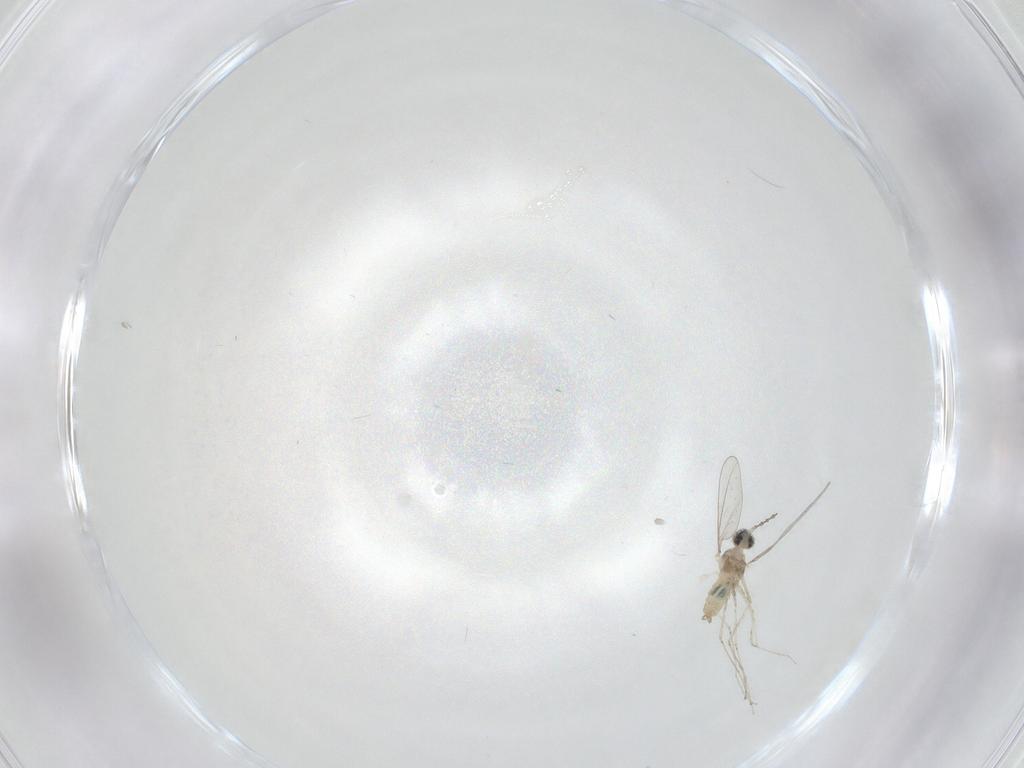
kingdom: Animalia
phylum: Arthropoda
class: Insecta
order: Diptera
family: Cecidomyiidae
